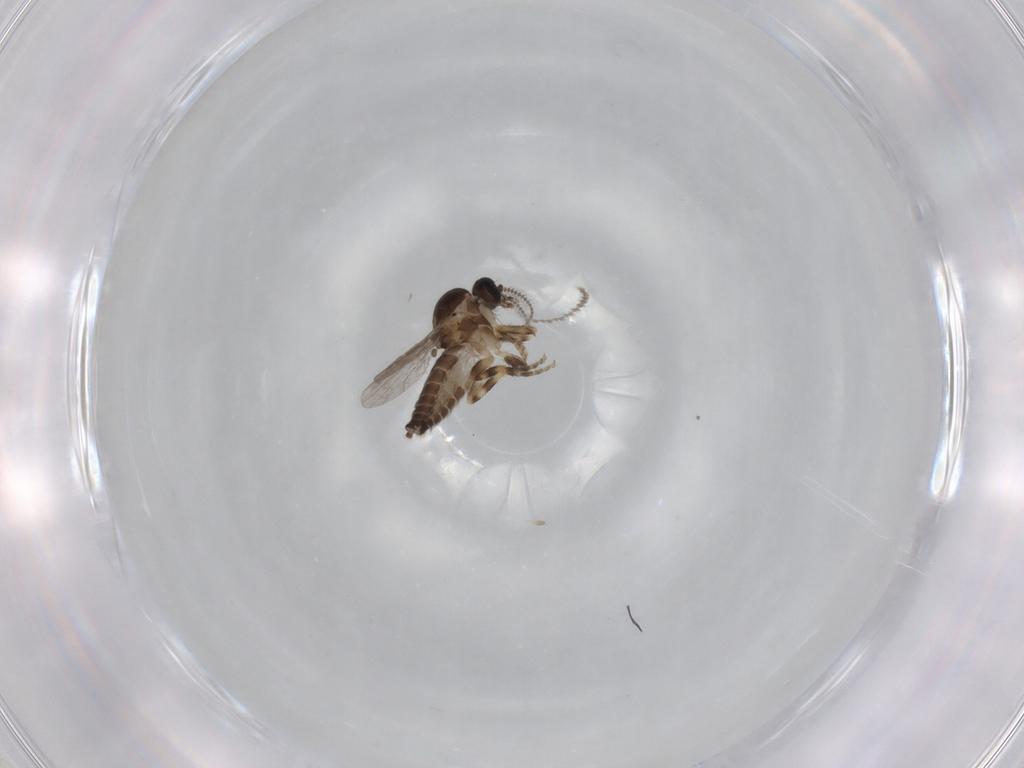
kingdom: Animalia
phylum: Arthropoda
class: Insecta
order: Diptera
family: Ceratopogonidae
